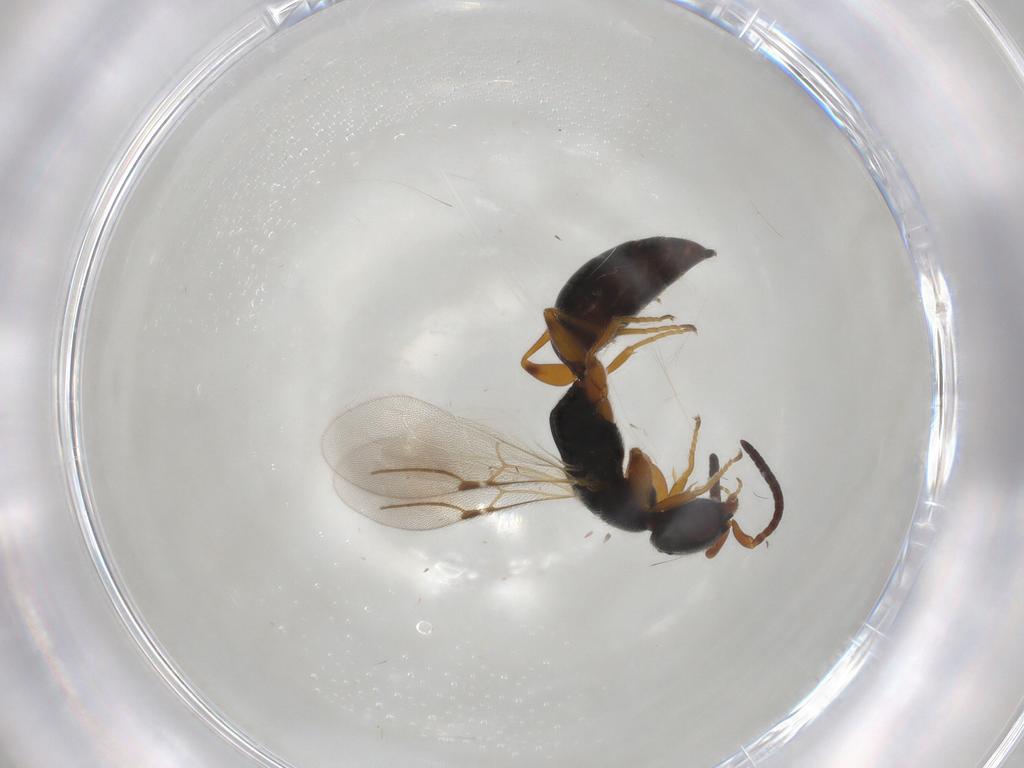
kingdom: Animalia
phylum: Arthropoda
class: Insecta
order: Hymenoptera
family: Bethylidae
